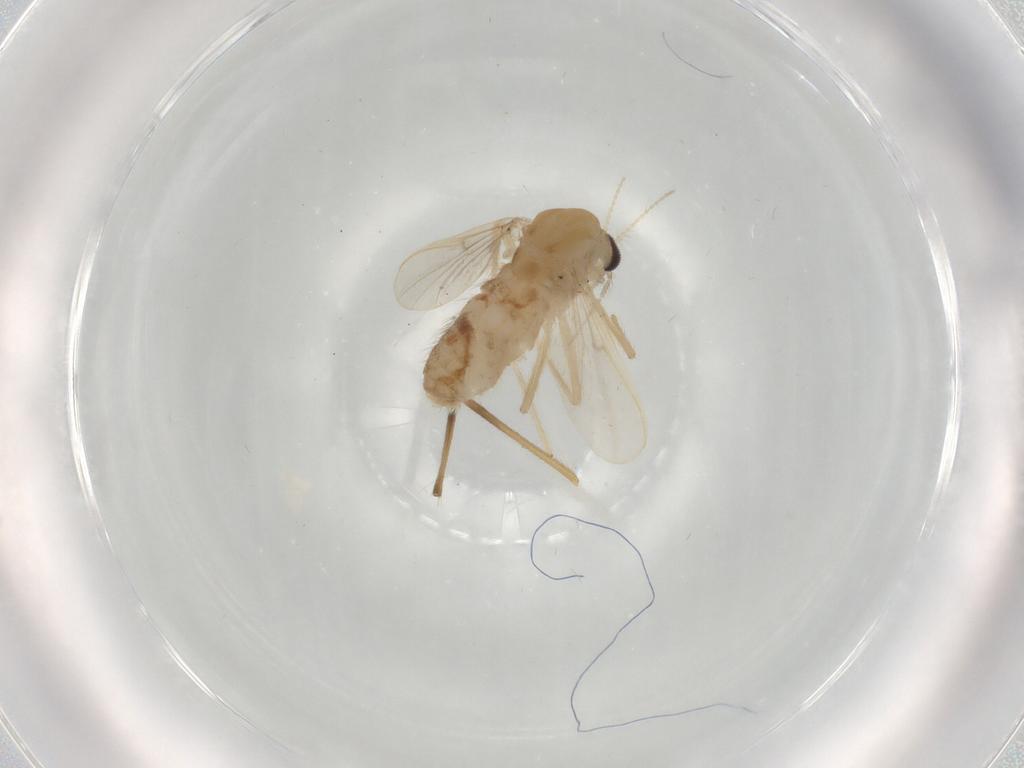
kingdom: Animalia
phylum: Arthropoda
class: Insecta
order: Diptera
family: Chironomidae
